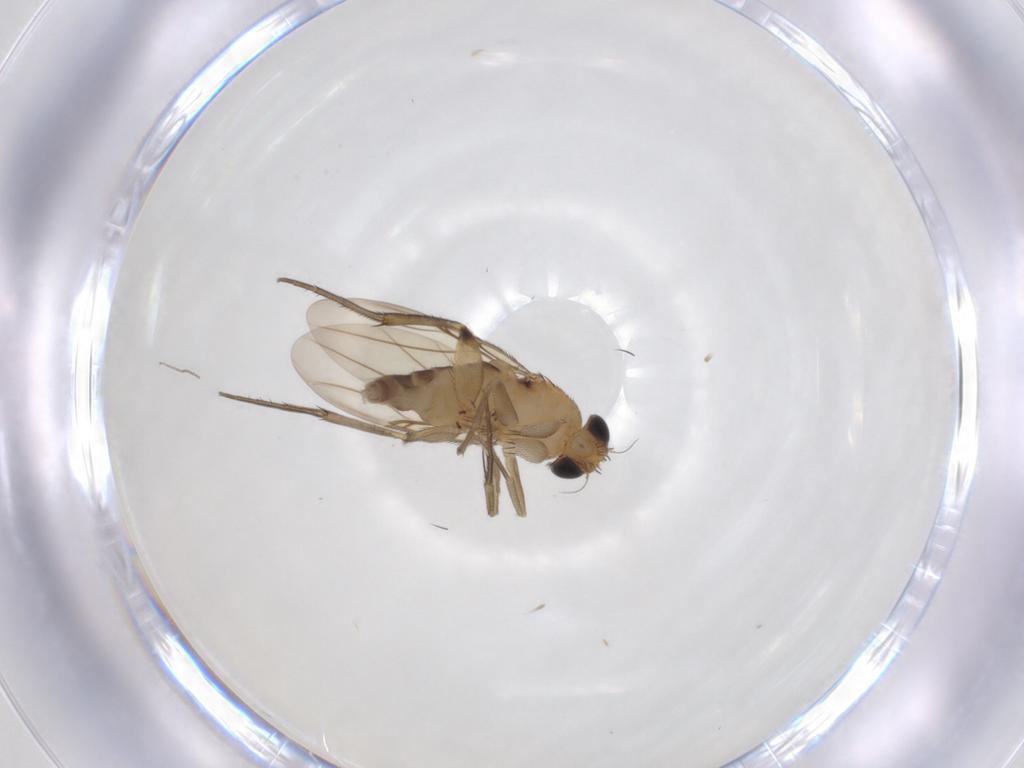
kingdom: Animalia
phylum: Arthropoda
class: Insecta
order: Diptera
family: Phoridae
